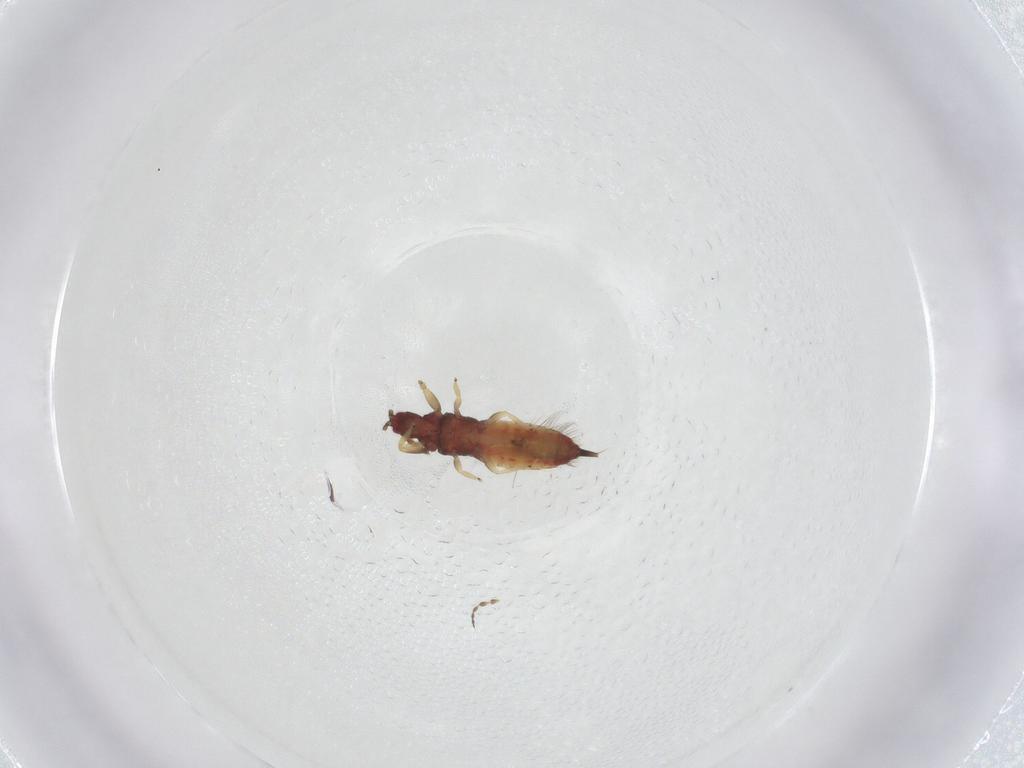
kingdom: Animalia
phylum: Arthropoda
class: Insecta
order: Thysanoptera
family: Phlaeothripidae
